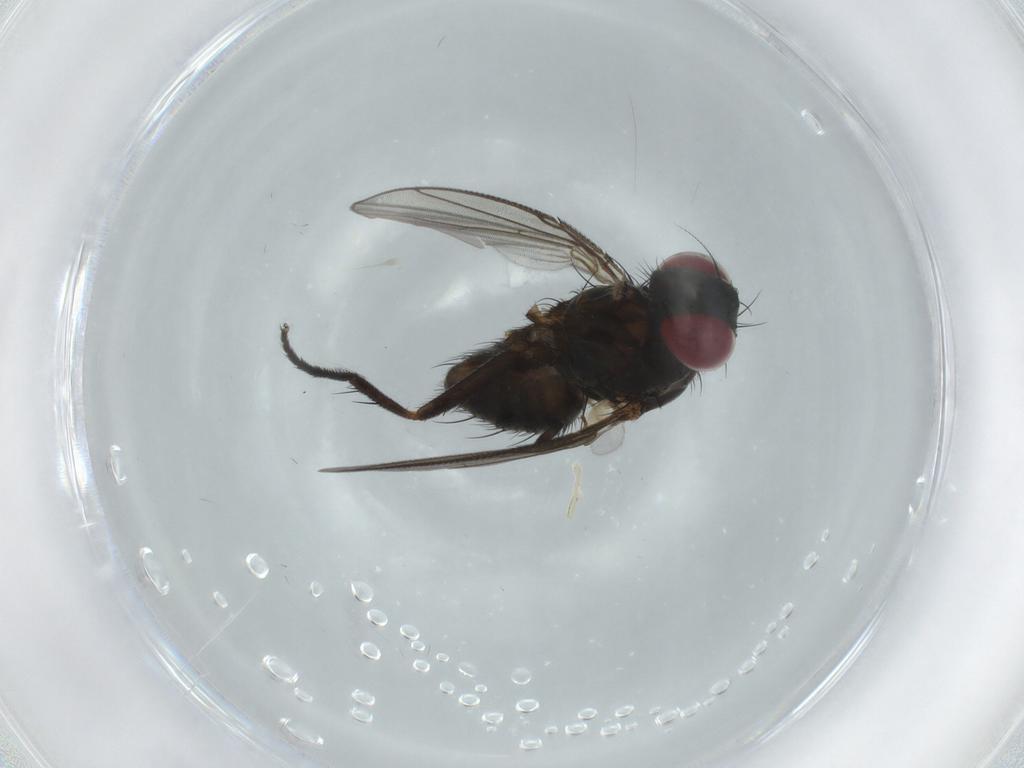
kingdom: Animalia
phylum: Arthropoda
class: Insecta
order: Diptera
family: Muscidae
